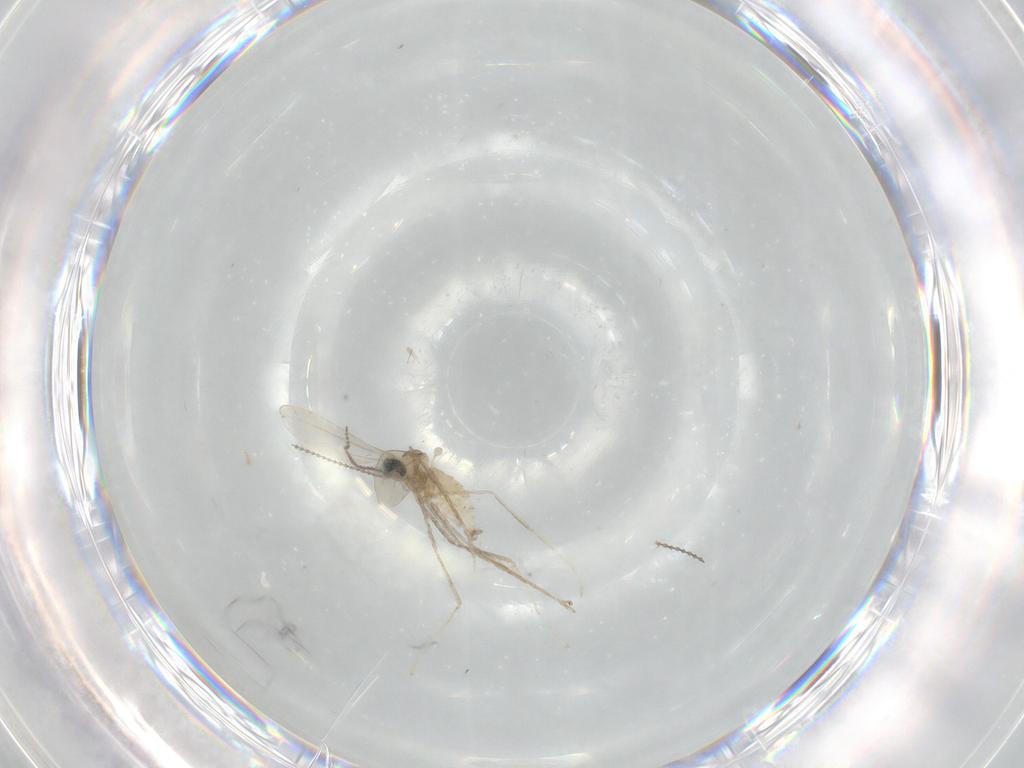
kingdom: Animalia
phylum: Arthropoda
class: Insecta
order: Diptera
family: Cecidomyiidae
